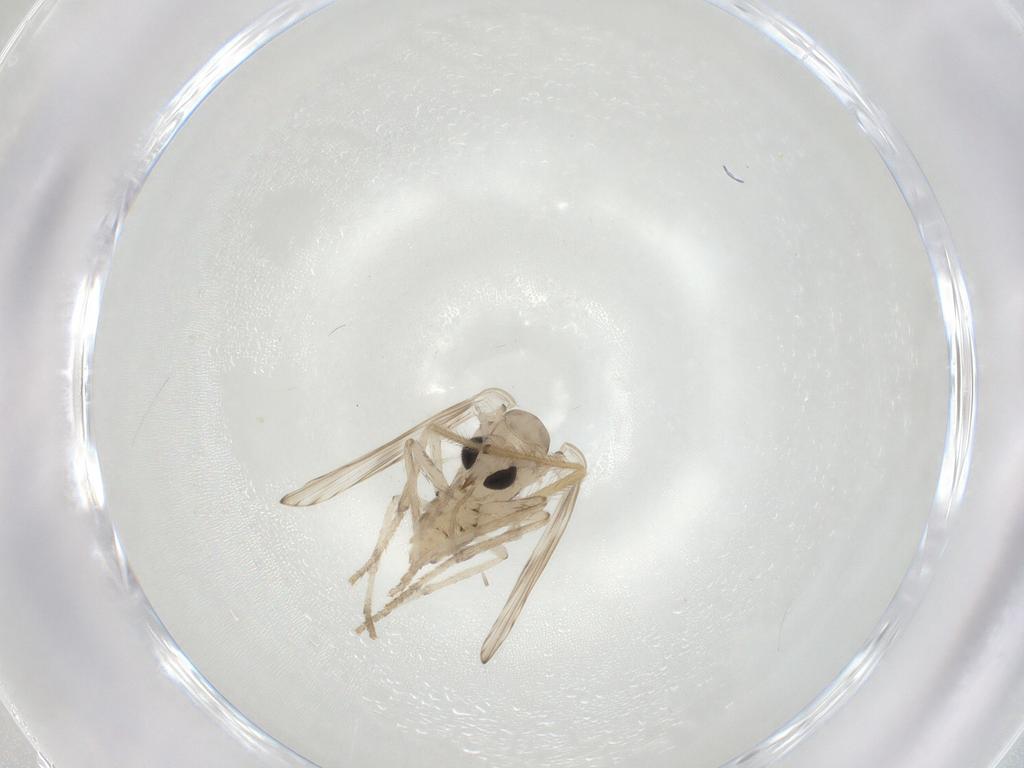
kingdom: Animalia
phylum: Arthropoda
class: Insecta
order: Diptera
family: Psychodidae
